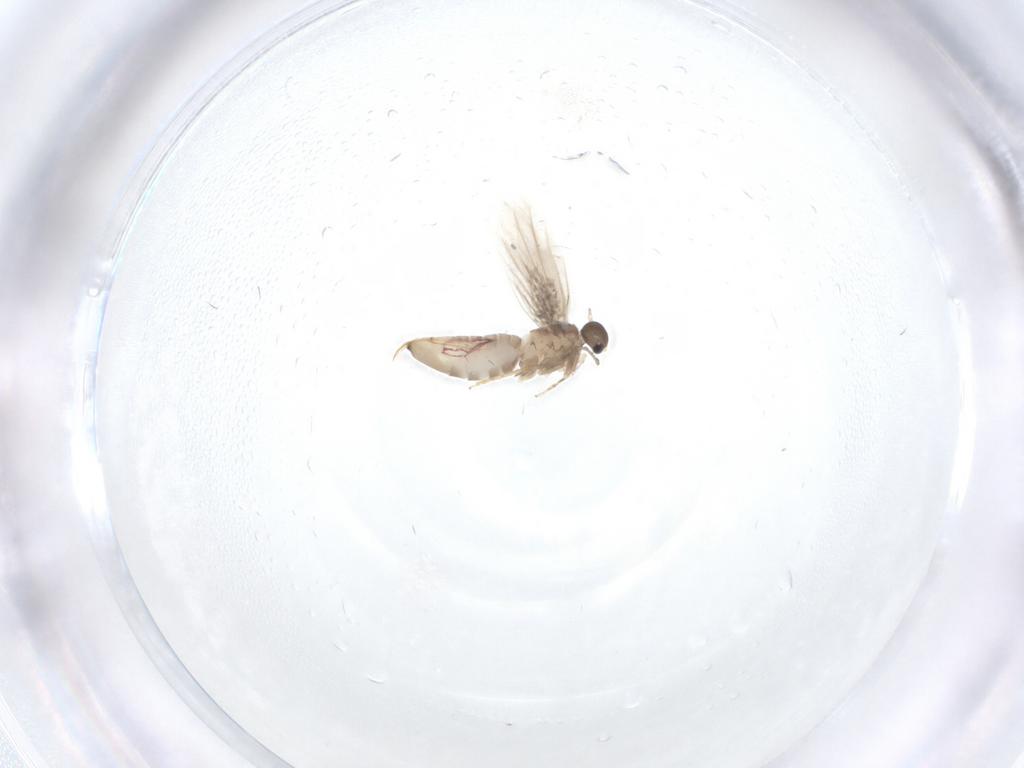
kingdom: Animalia
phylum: Arthropoda
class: Insecta
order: Lepidoptera
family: Heliozelidae
